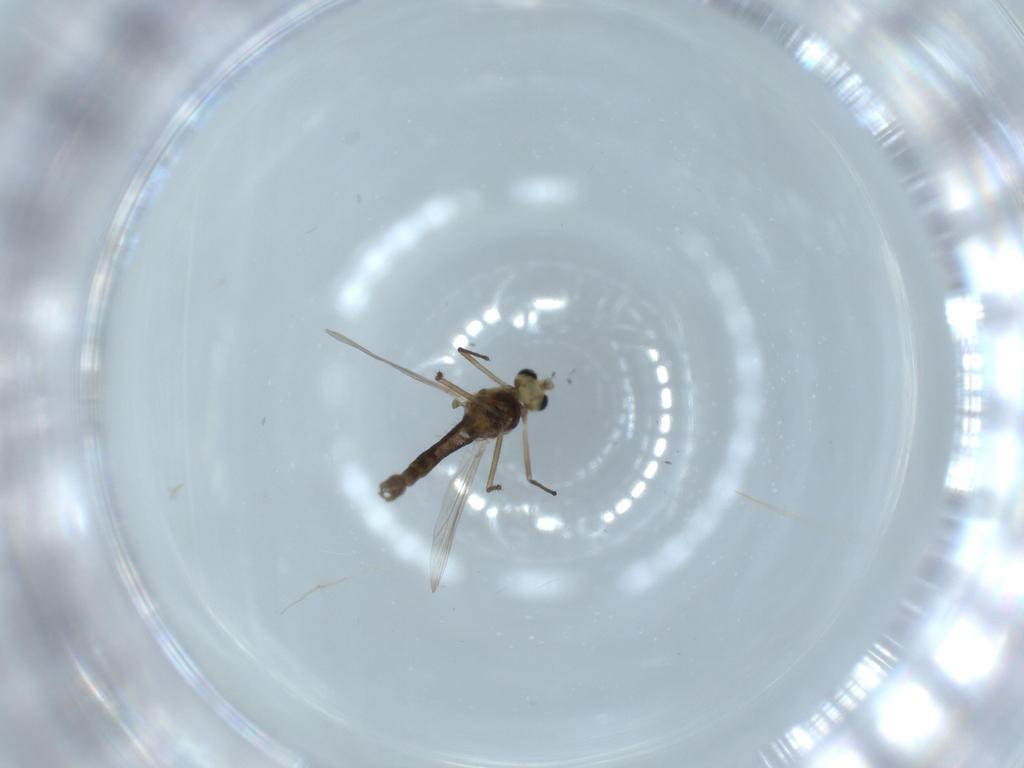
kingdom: Animalia
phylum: Arthropoda
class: Insecta
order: Diptera
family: Chironomidae
